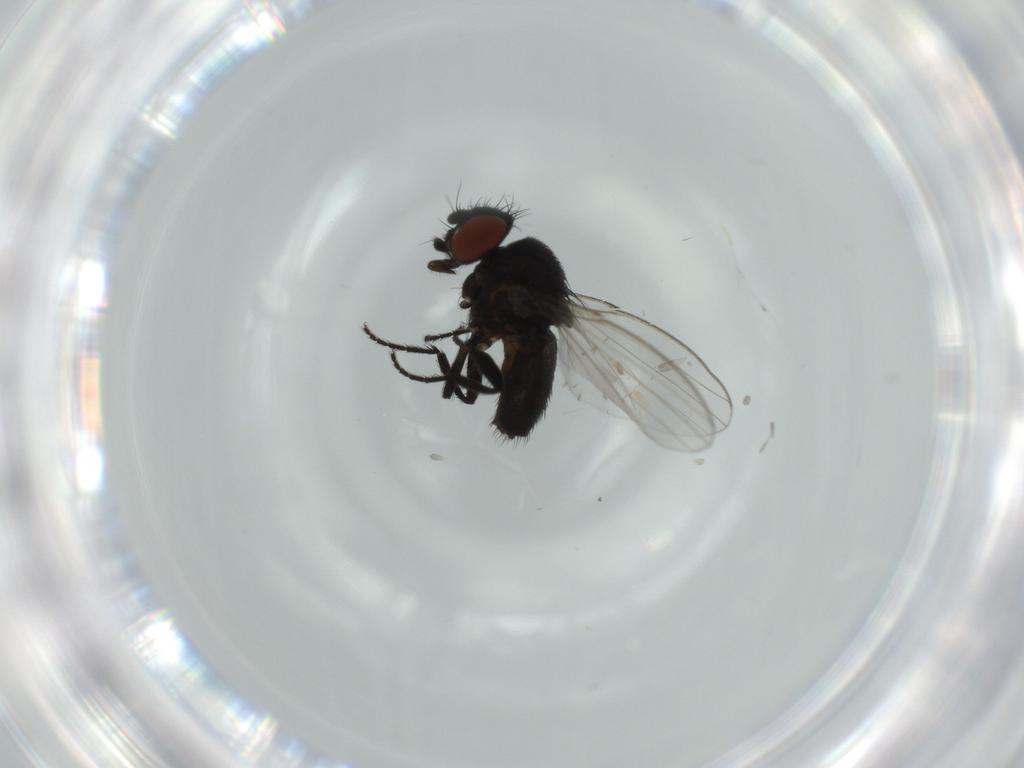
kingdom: Animalia
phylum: Arthropoda
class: Insecta
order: Diptera
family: Milichiidae
